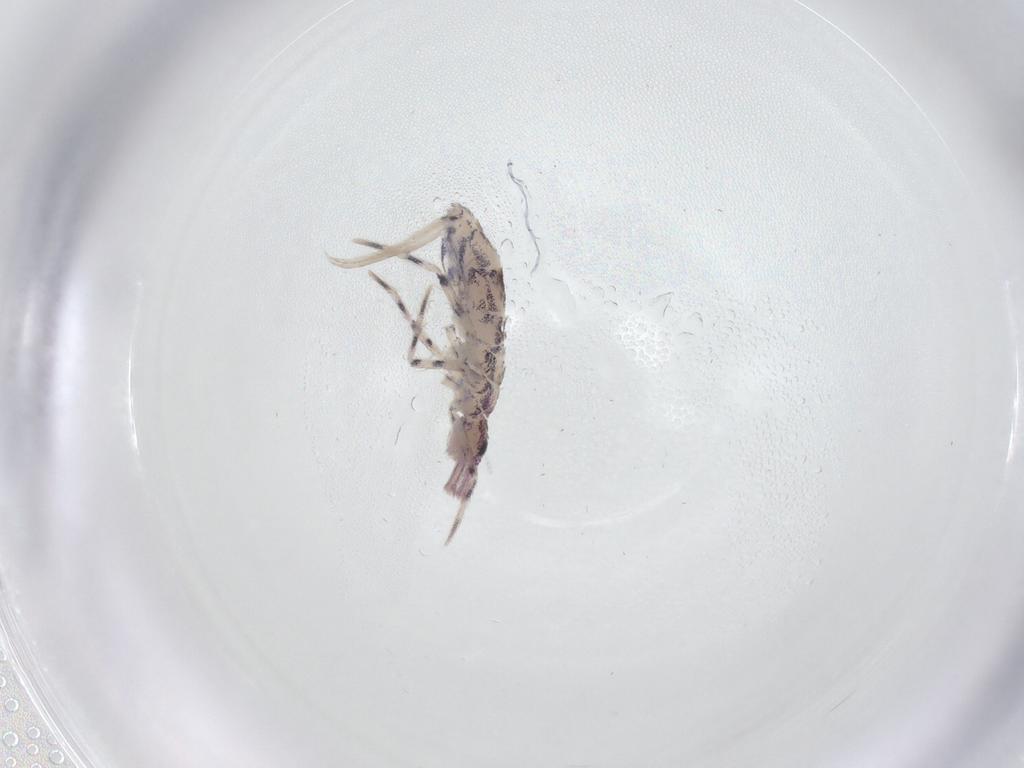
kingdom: Animalia
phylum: Arthropoda
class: Collembola
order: Entomobryomorpha
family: Entomobryidae
